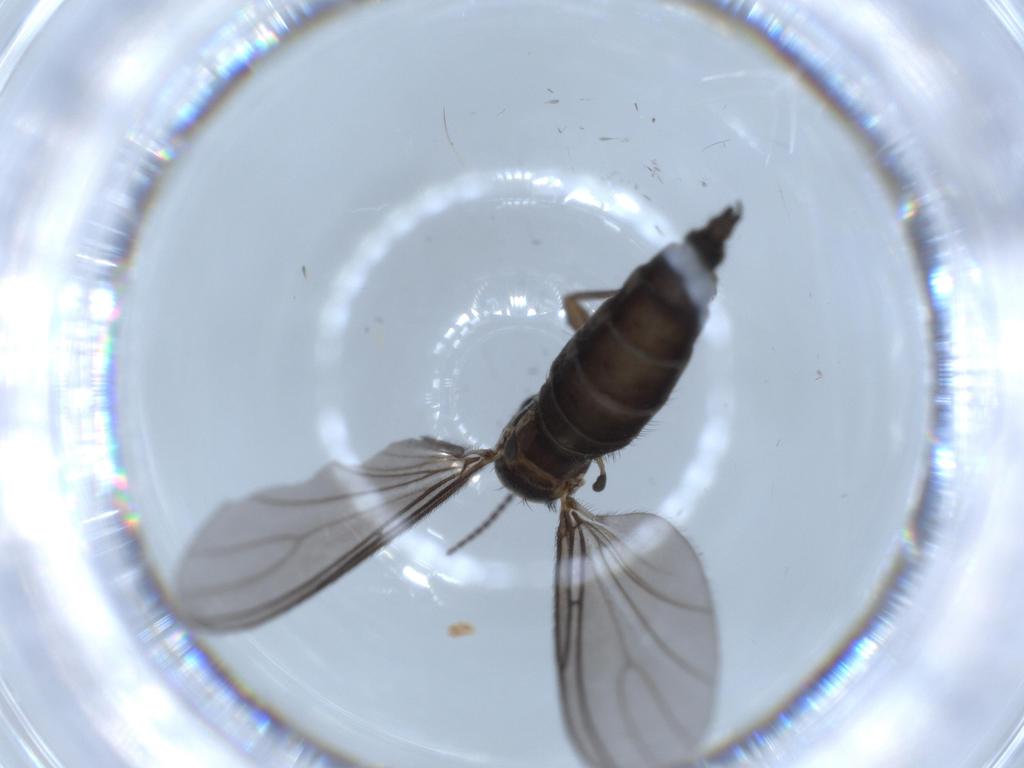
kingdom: Animalia
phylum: Arthropoda
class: Insecta
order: Diptera
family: Sciaridae
